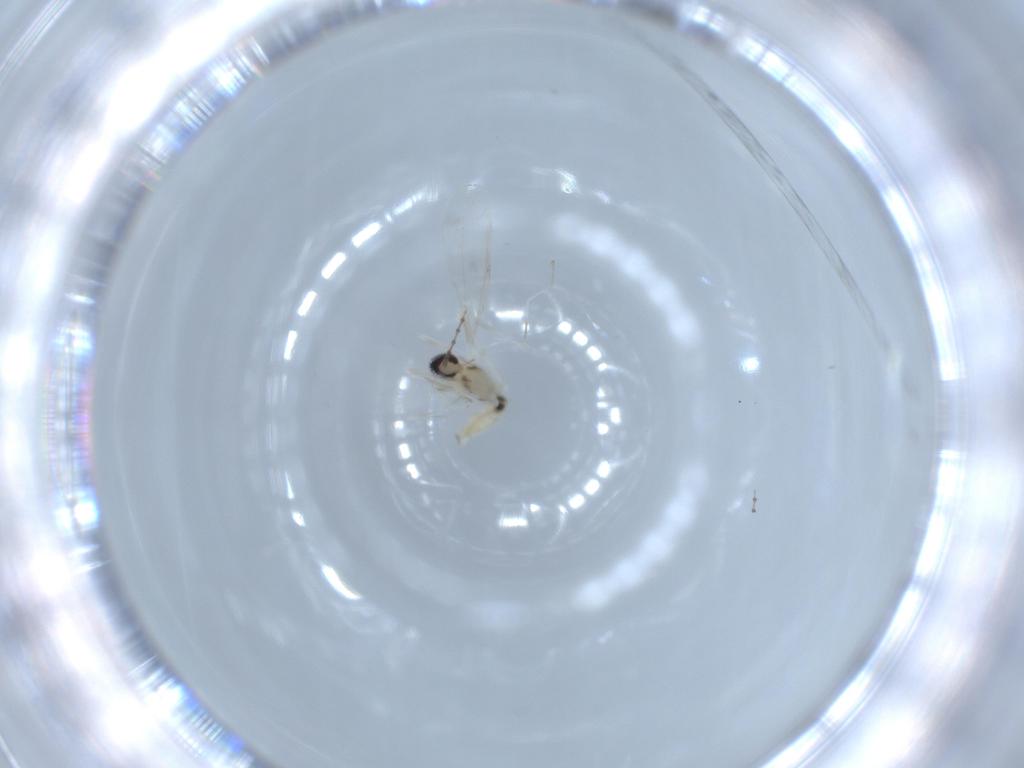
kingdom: Animalia
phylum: Arthropoda
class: Insecta
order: Diptera
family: Cecidomyiidae
